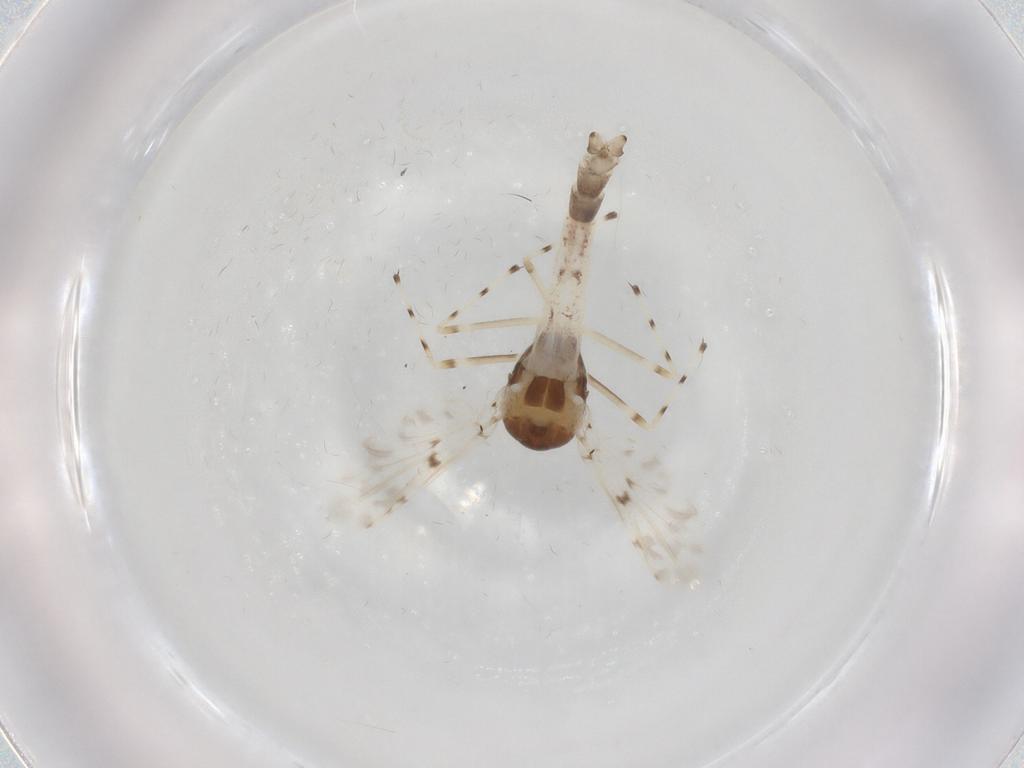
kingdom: Animalia
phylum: Arthropoda
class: Insecta
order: Diptera
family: Chironomidae
